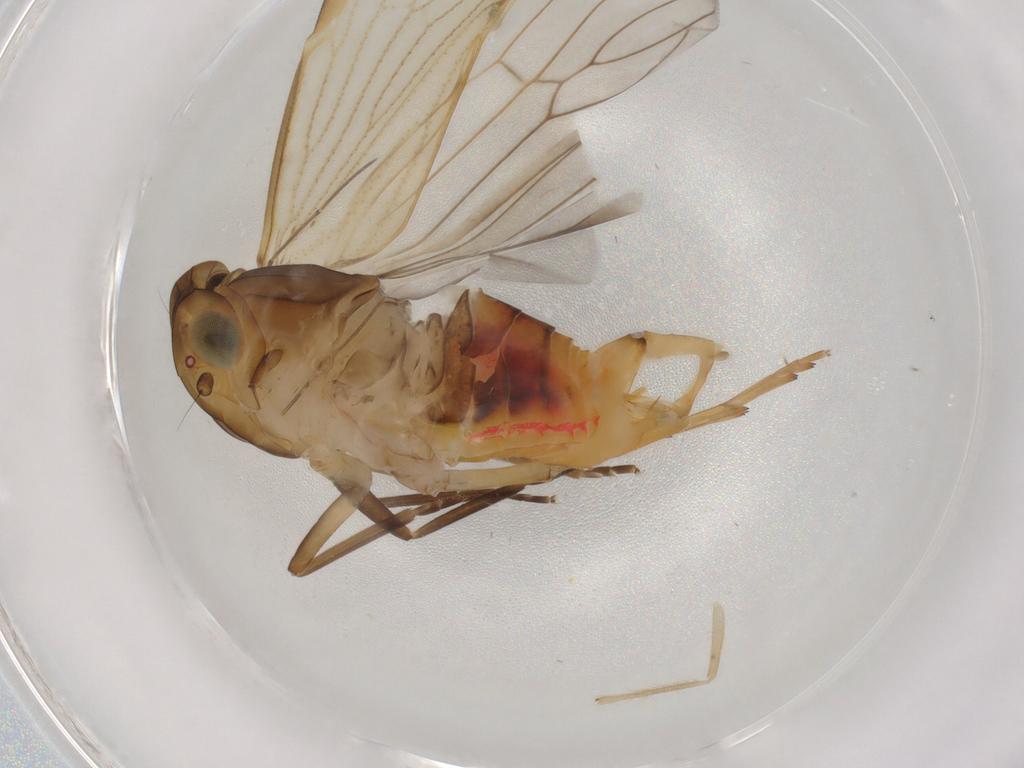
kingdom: Animalia
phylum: Arthropoda
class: Insecta
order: Hemiptera
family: Cixiidae
